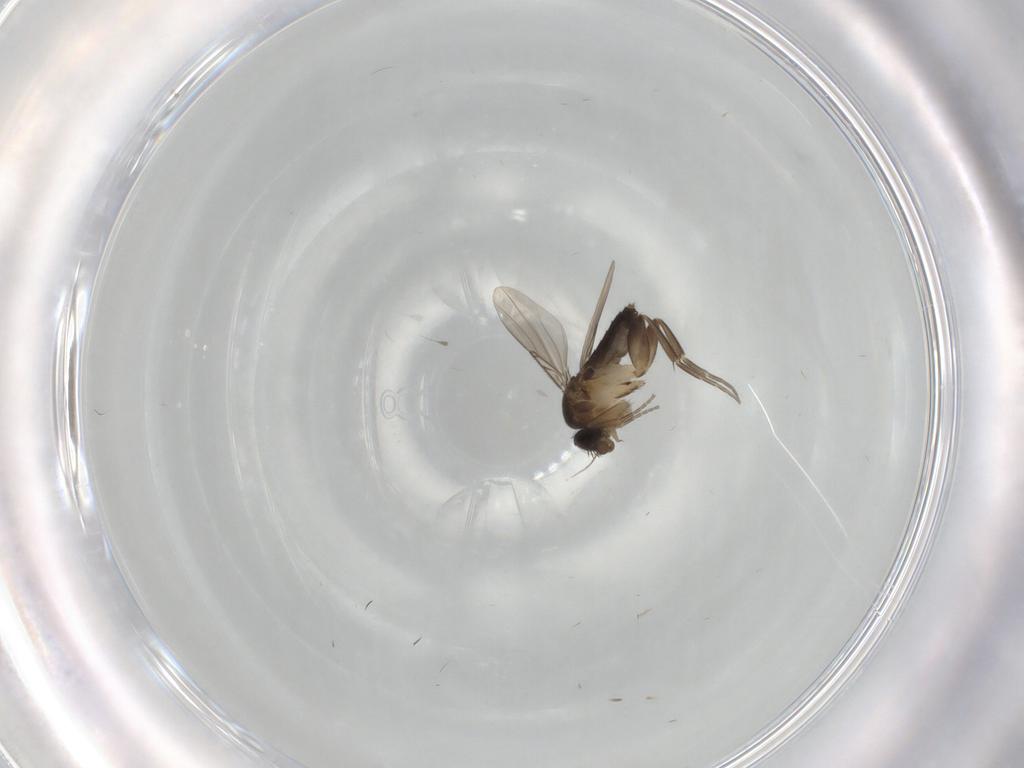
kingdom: Animalia
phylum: Arthropoda
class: Insecta
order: Diptera
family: Phoridae
